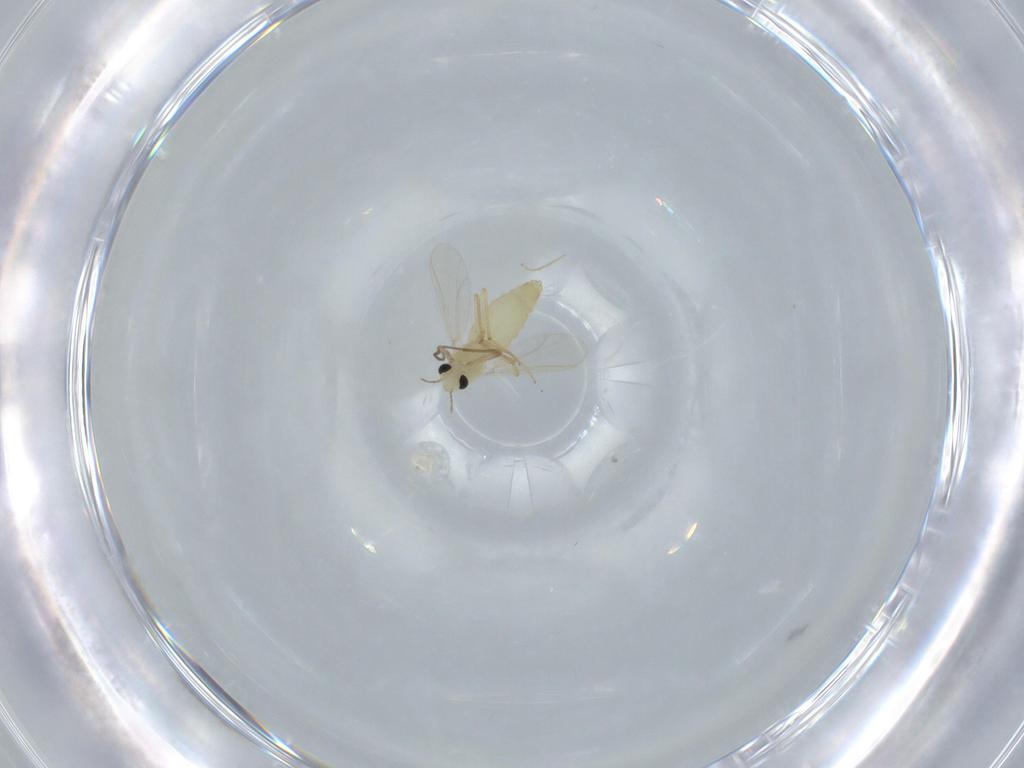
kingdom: Animalia
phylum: Arthropoda
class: Insecta
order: Diptera
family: Chironomidae
